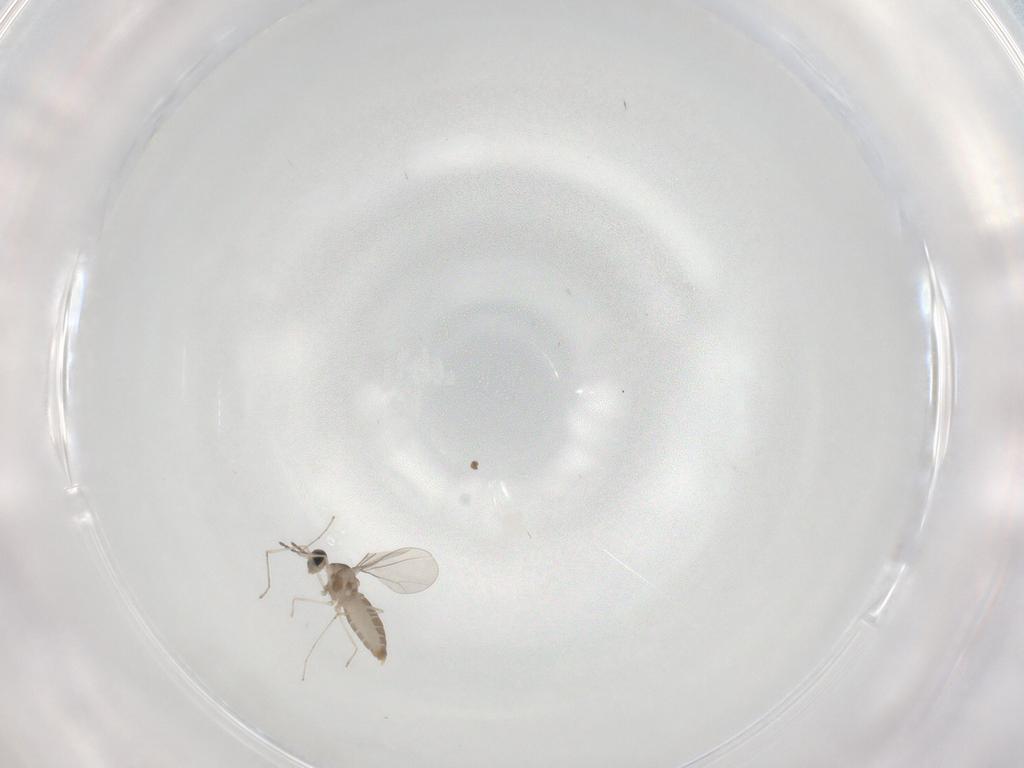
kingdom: Animalia
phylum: Arthropoda
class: Insecta
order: Diptera
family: Cecidomyiidae
